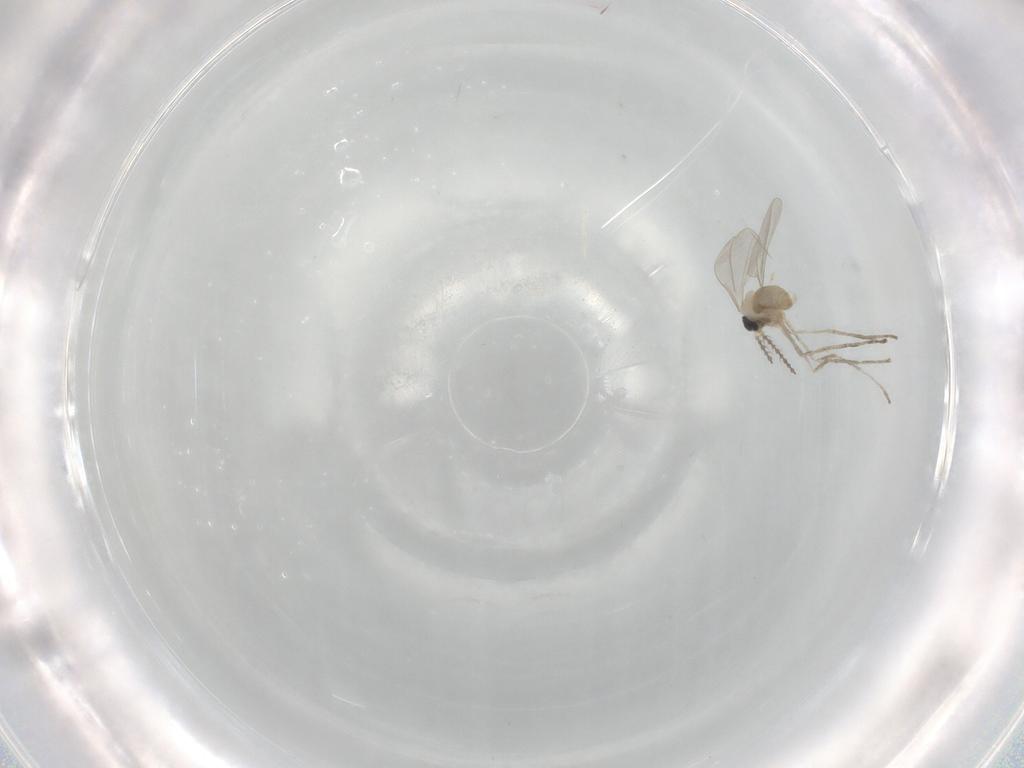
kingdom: Animalia
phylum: Arthropoda
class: Insecta
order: Diptera
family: Cecidomyiidae
